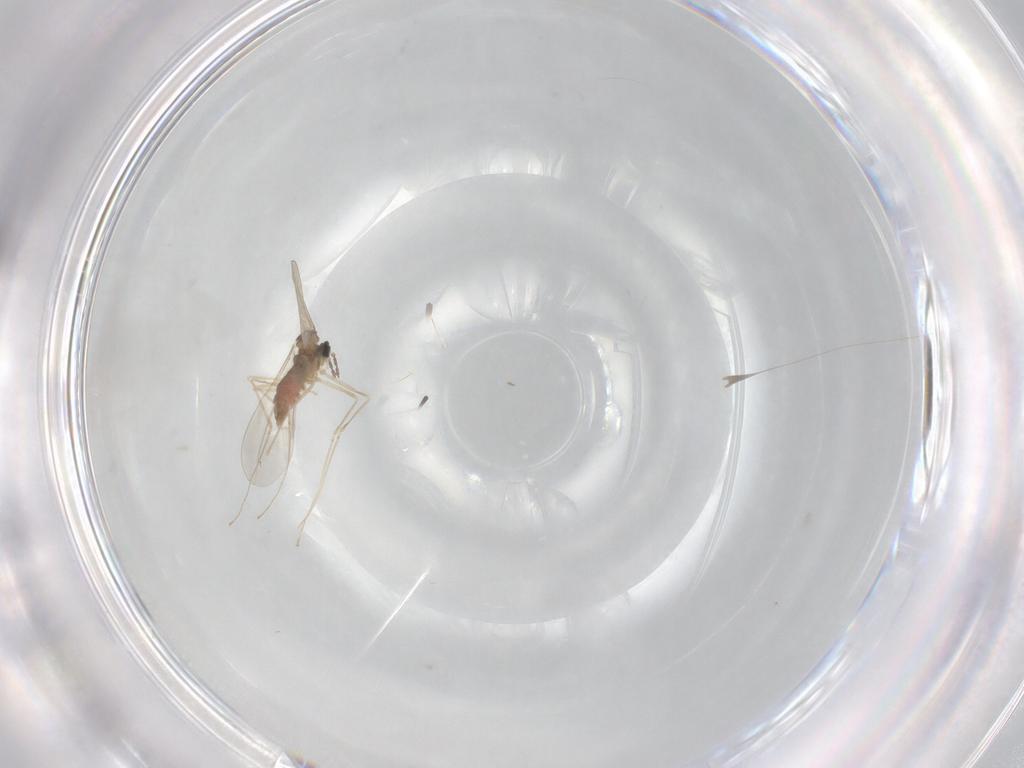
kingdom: Animalia
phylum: Arthropoda
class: Insecta
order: Diptera
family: Cecidomyiidae
